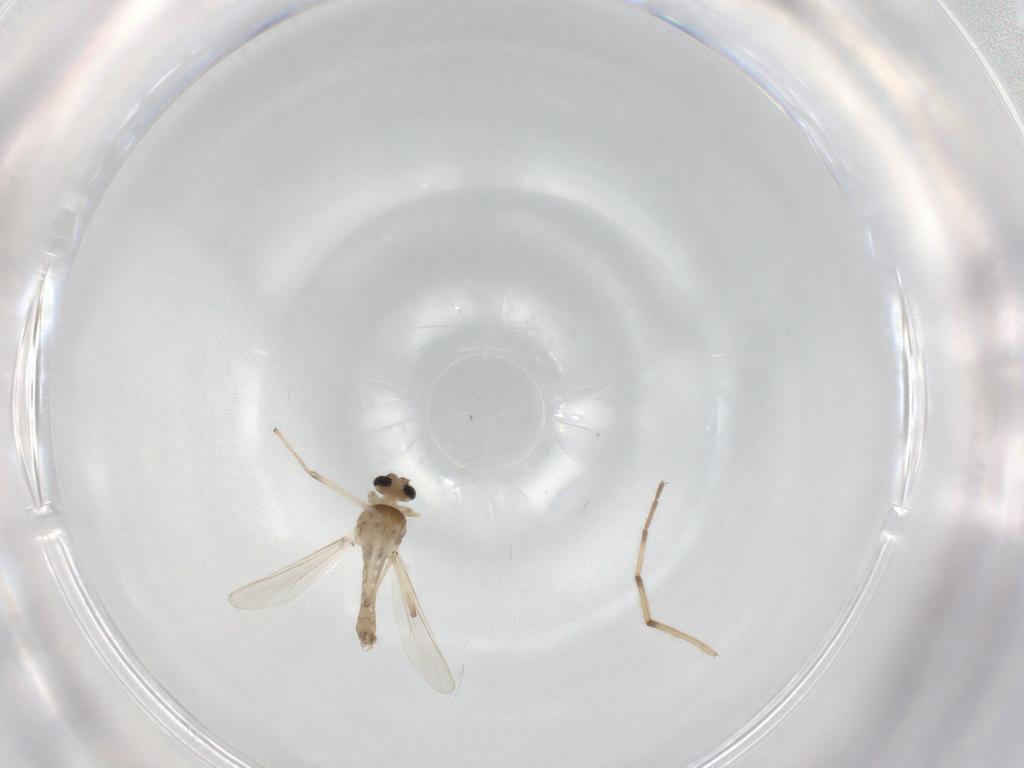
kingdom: Animalia
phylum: Arthropoda
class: Insecta
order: Diptera
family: Chironomidae
